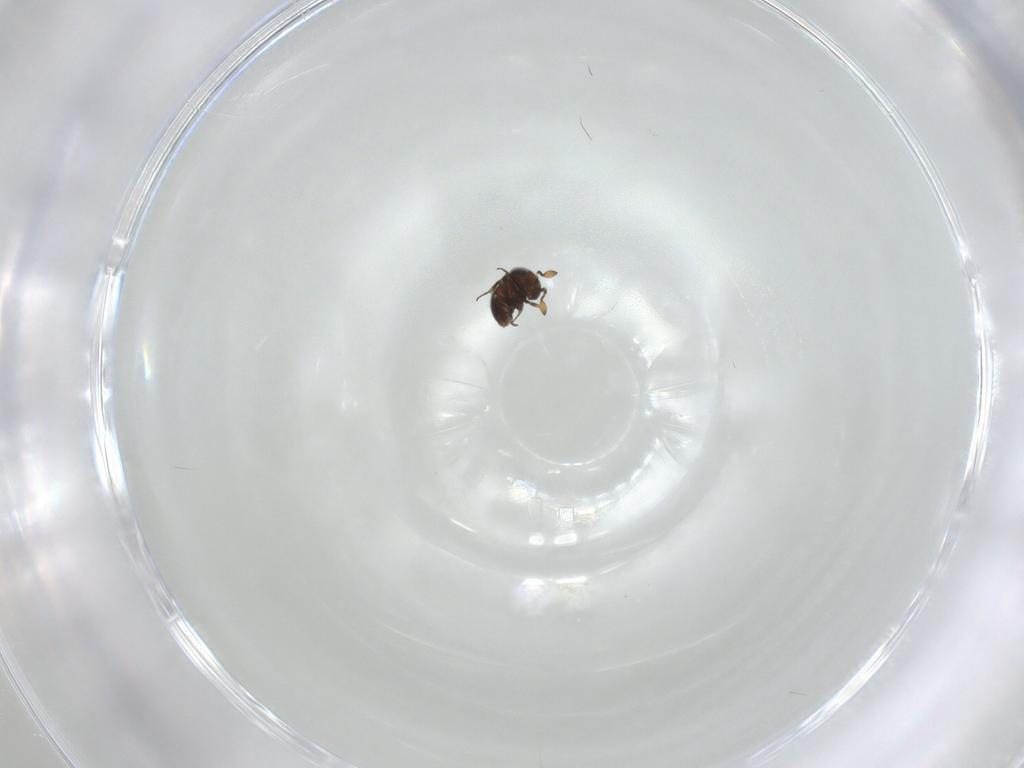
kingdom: Animalia
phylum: Arthropoda
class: Insecta
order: Hymenoptera
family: Scelionidae
